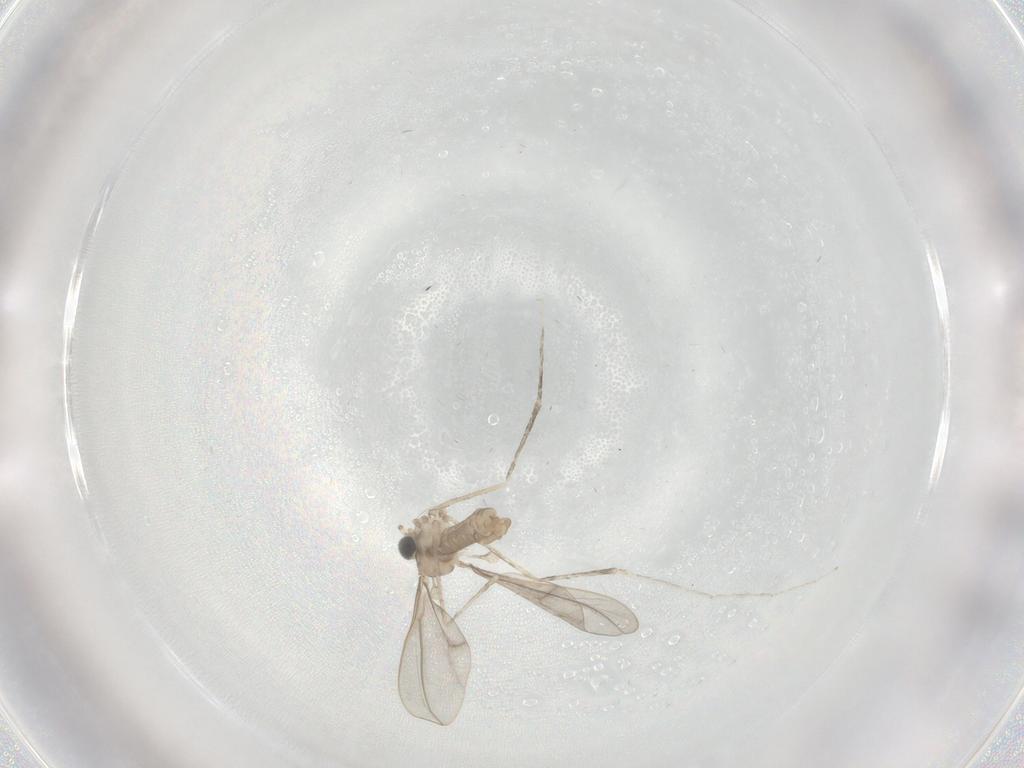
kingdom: Animalia
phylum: Arthropoda
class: Insecta
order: Diptera
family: Cecidomyiidae
